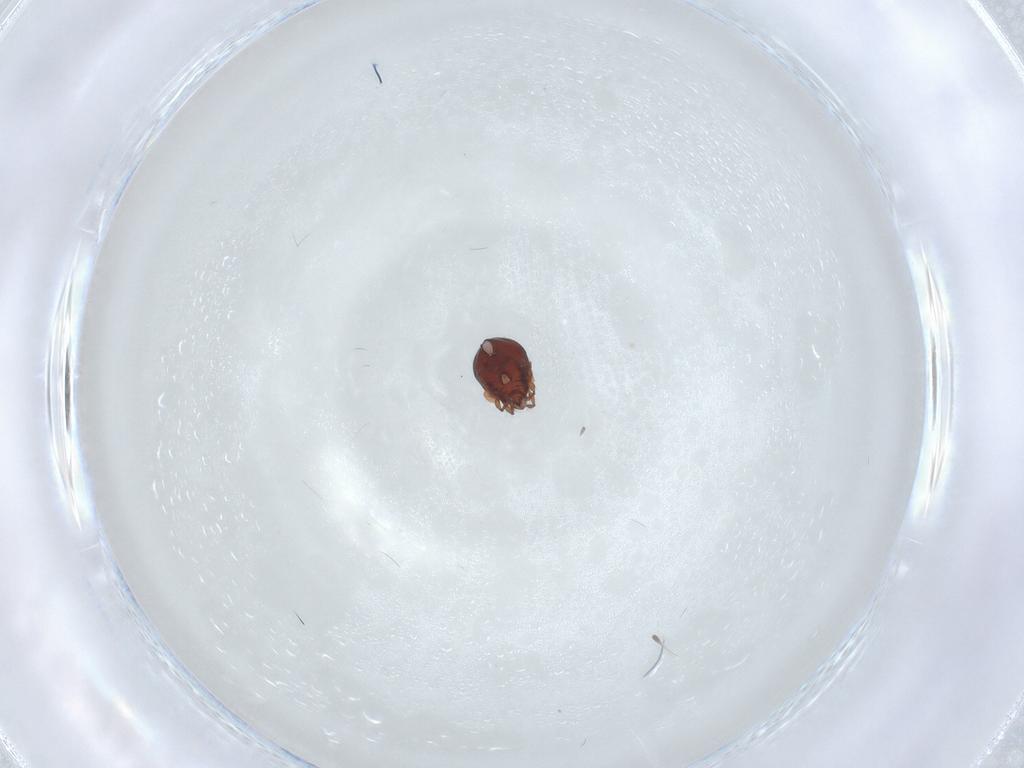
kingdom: Animalia
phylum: Arthropoda
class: Arachnida
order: Sarcoptiformes
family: Humerobatidae
